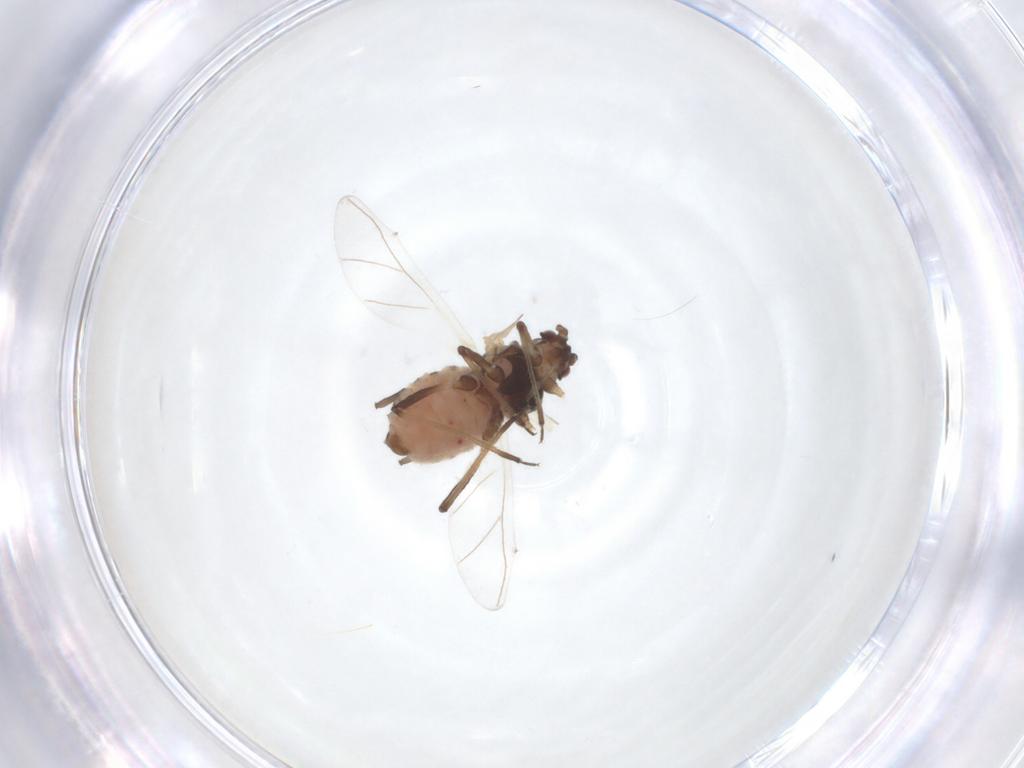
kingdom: Animalia
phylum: Arthropoda
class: Insecta
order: Hemiptera
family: Aphididae
